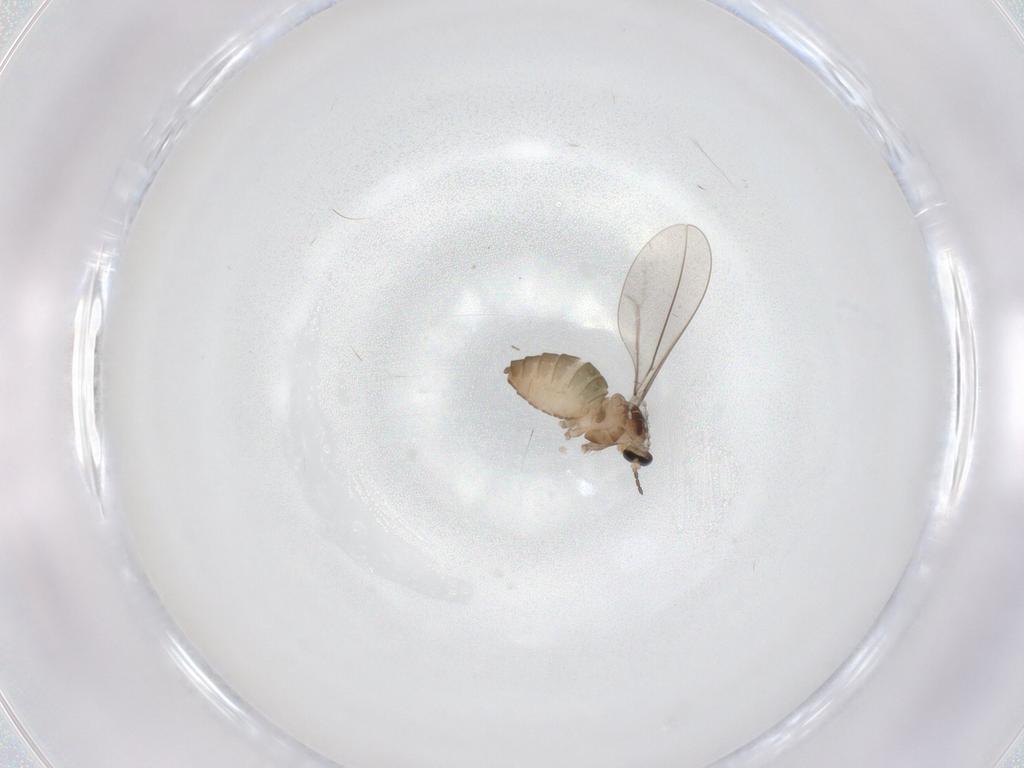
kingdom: Animalia
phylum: Arthropoda
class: Insecta
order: Diptera
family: Cecidomyiidae
